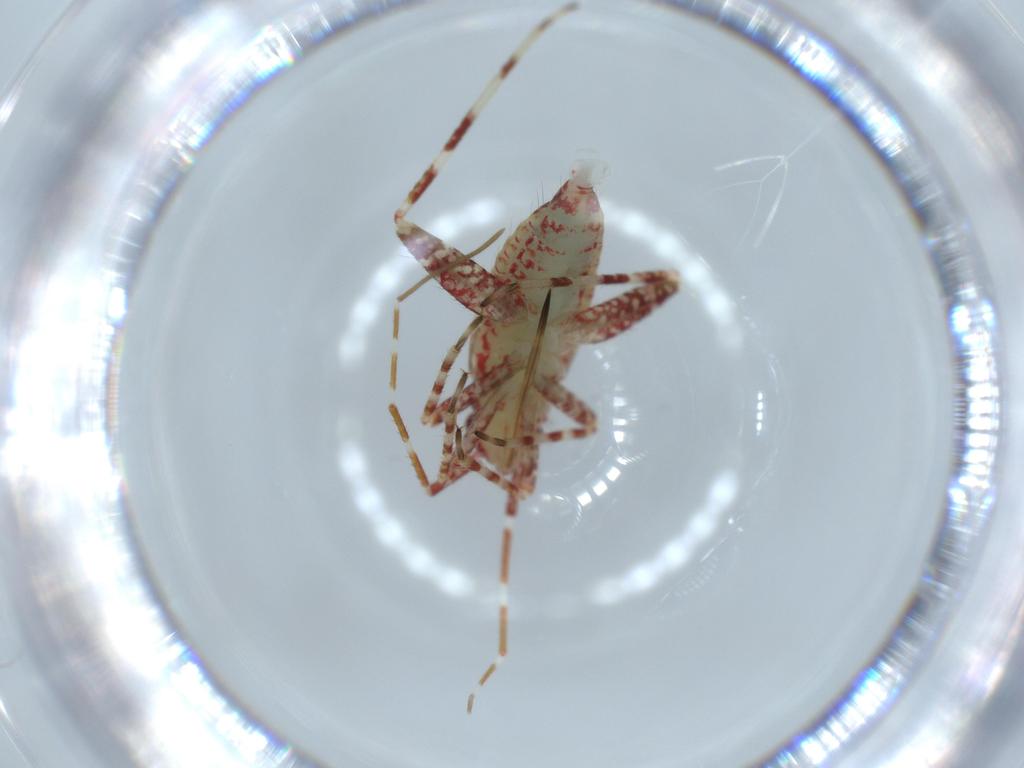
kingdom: Animalia
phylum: Arthropoda
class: Insecta
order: Hemiptera
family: Miridae
